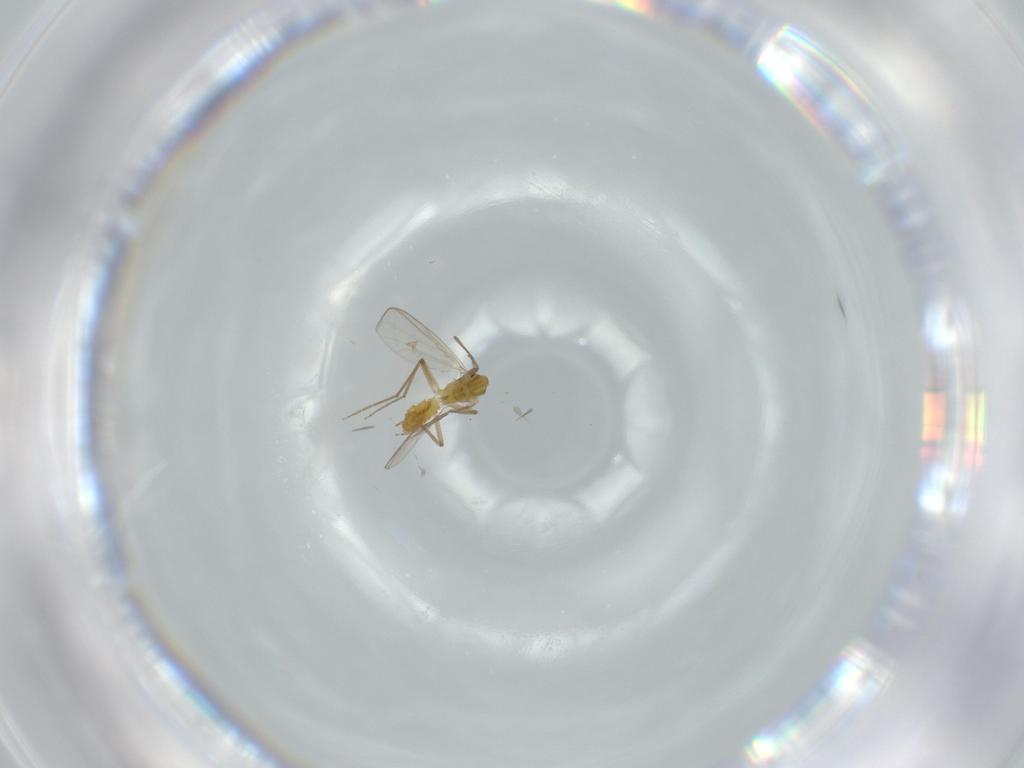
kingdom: Animalia
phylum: Arthropoda
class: Insecta
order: Diptera
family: Chironomidae
